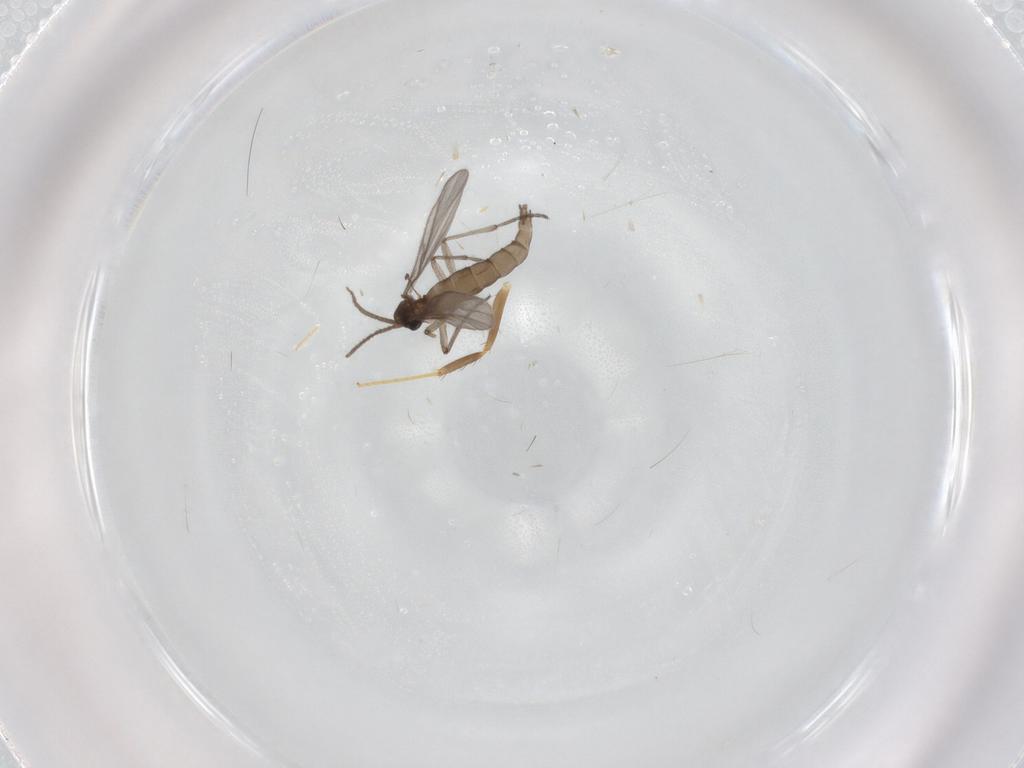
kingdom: Animalia
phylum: Arthropoda
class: Insecta
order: Diptera
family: Sciaridae
